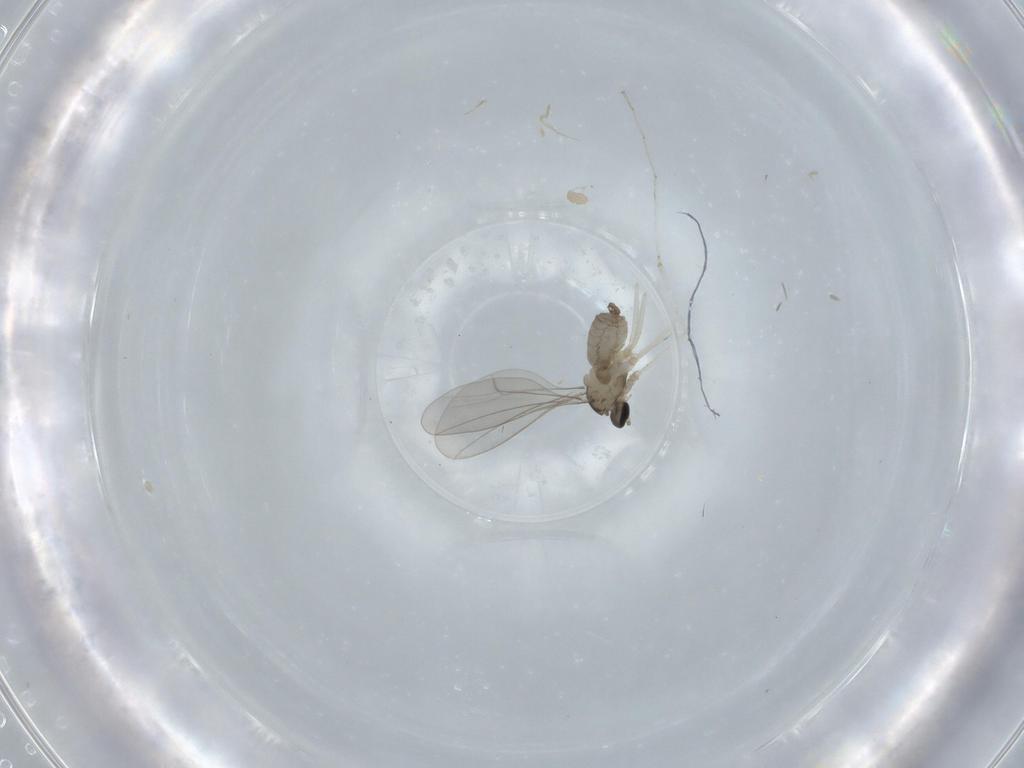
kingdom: Animalia
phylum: Arthropoda
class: Insecta
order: Diptera
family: Cecidomyiidae
